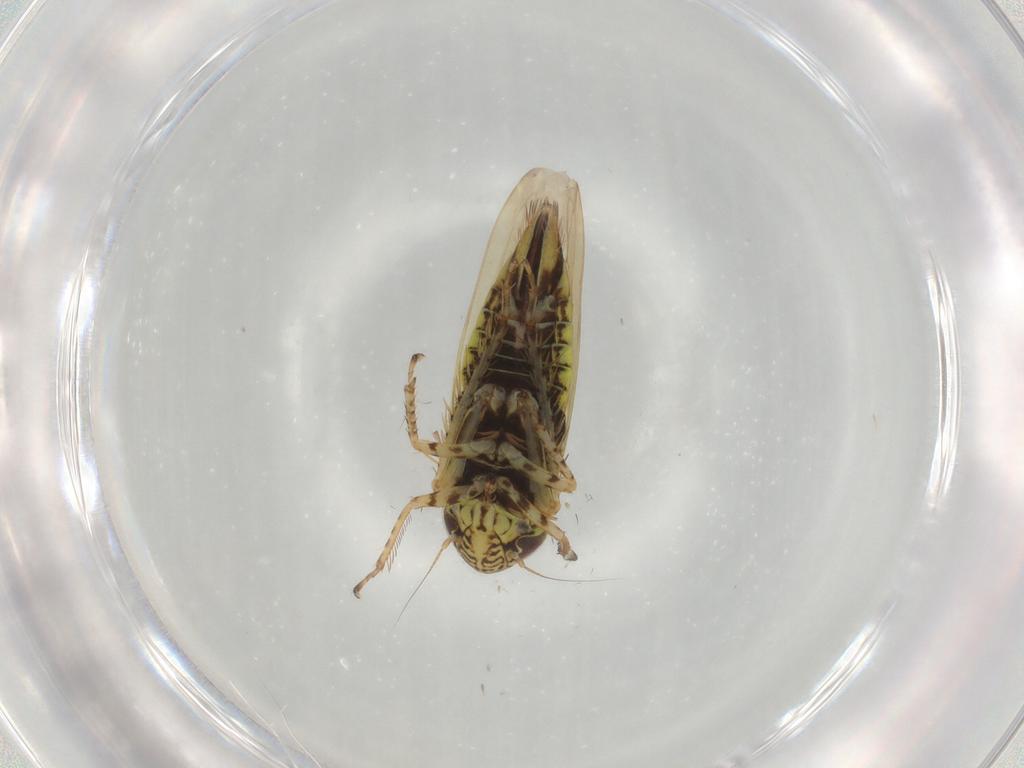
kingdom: Animalia
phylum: Arthropoda
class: Insecta
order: Hemiptera
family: Cicadellidae
